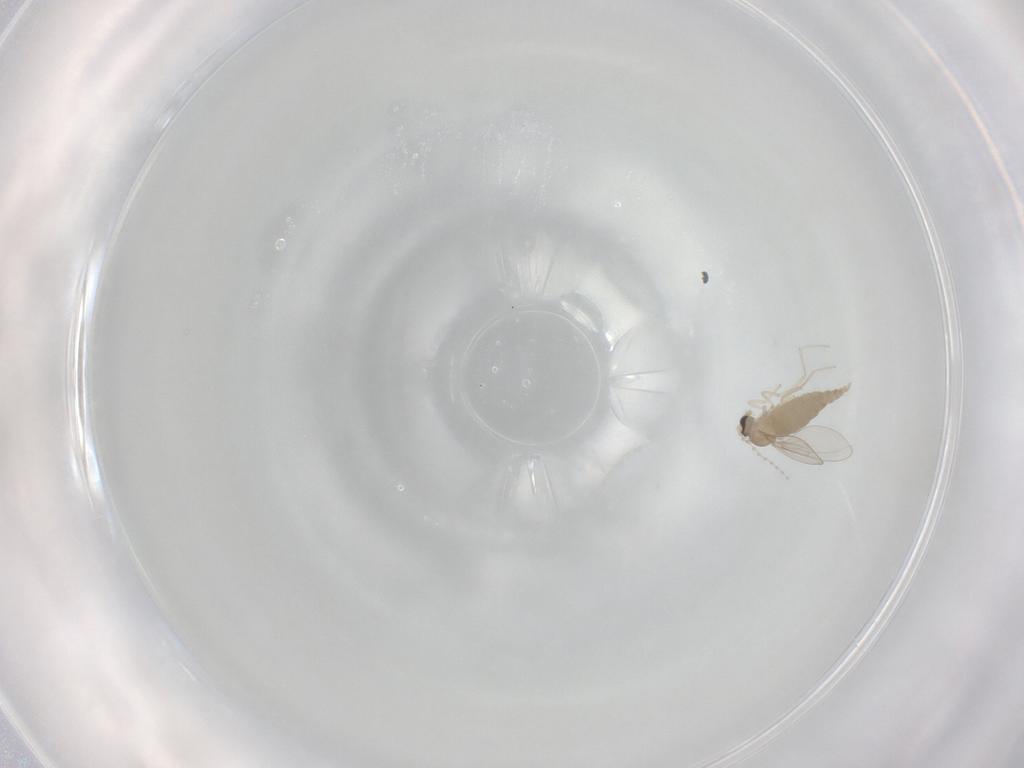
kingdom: Animalia
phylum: Arthropoda
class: Insecta
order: Diptera
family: Cecidomyiidae
